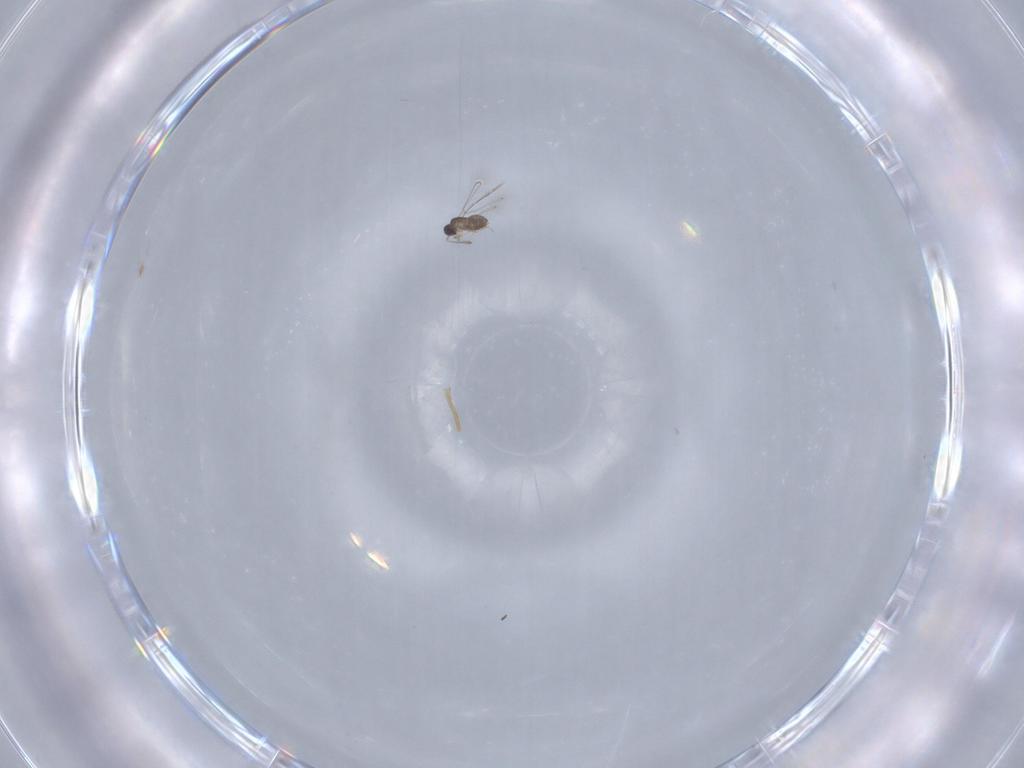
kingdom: Animalia
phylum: Arthropoda
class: Insecta
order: Hymenoptera
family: Mymaridae
